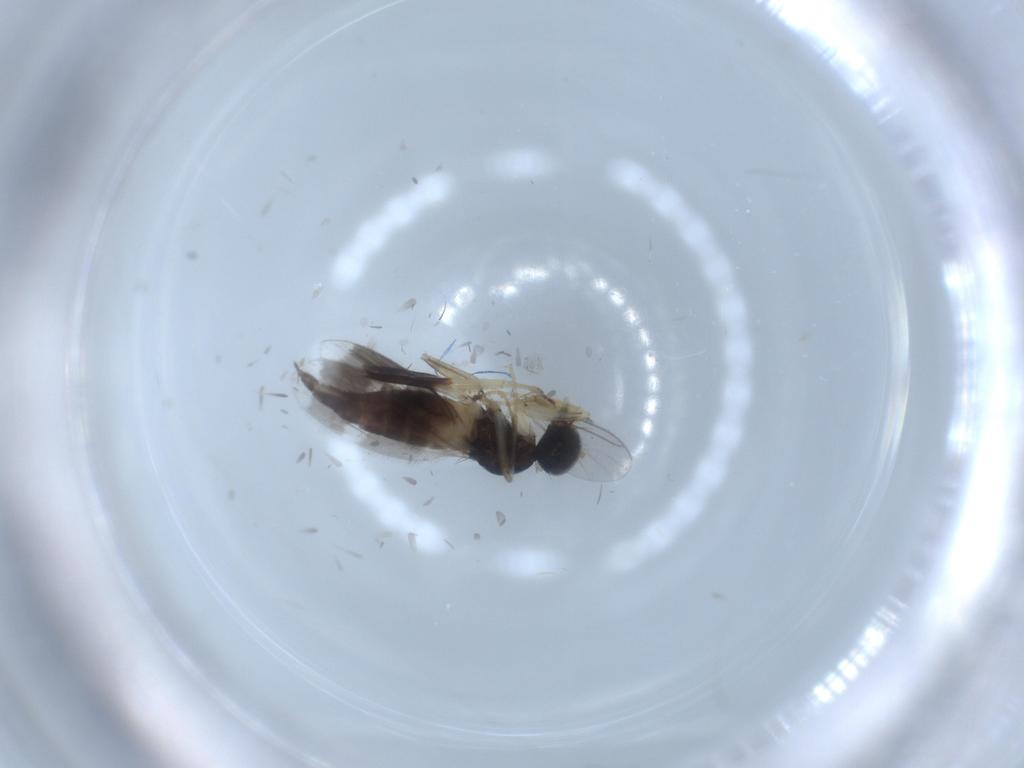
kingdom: Animalia
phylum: Arthropoda
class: Insecta
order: Diptera
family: Hybotidae
